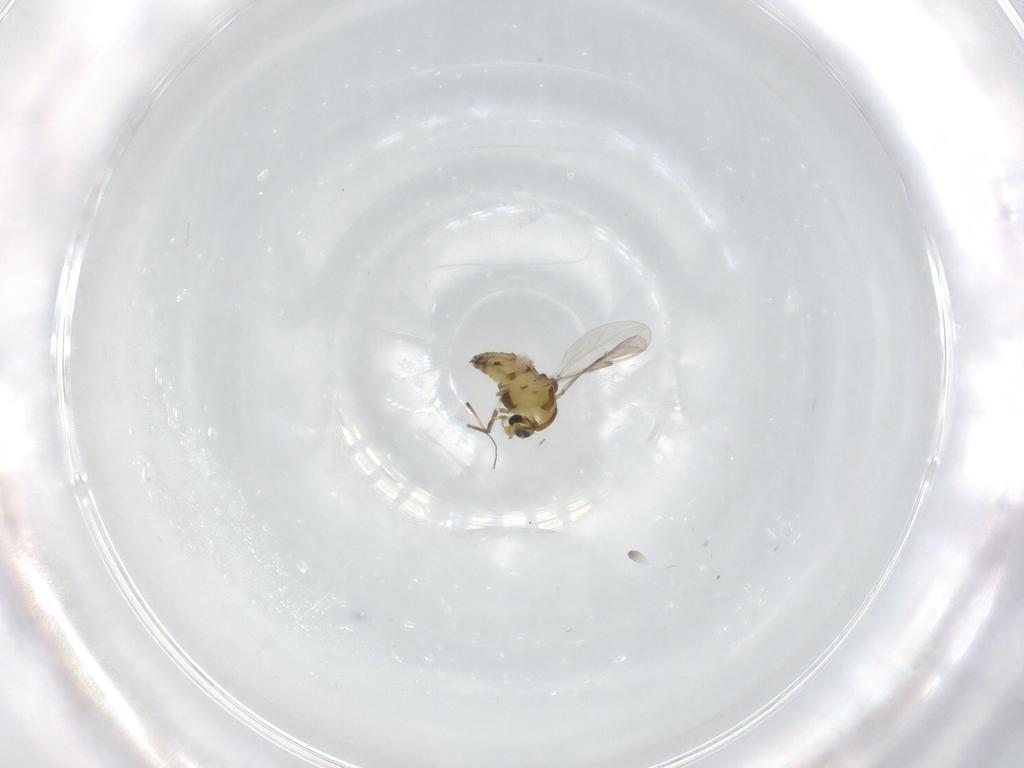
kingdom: Animalia
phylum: Arthropoda
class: Insecta
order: Diptera
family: Chironomidae
